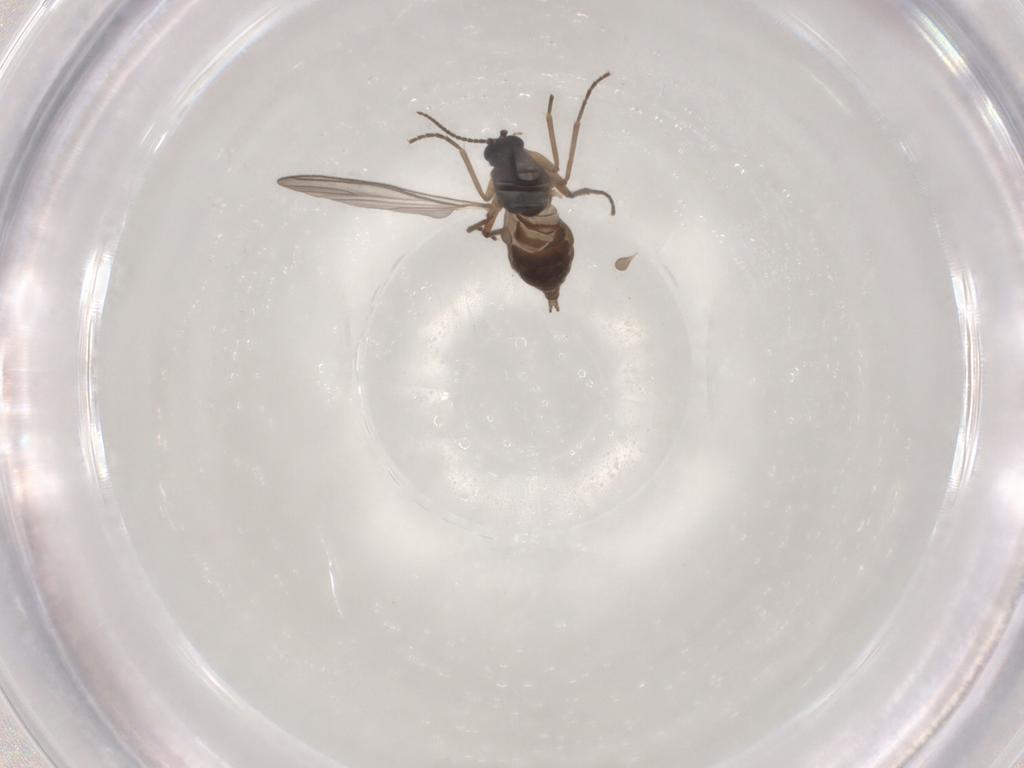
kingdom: Animalia
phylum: Arthropoda
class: Insecta
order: Diptera
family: Sciaridae
